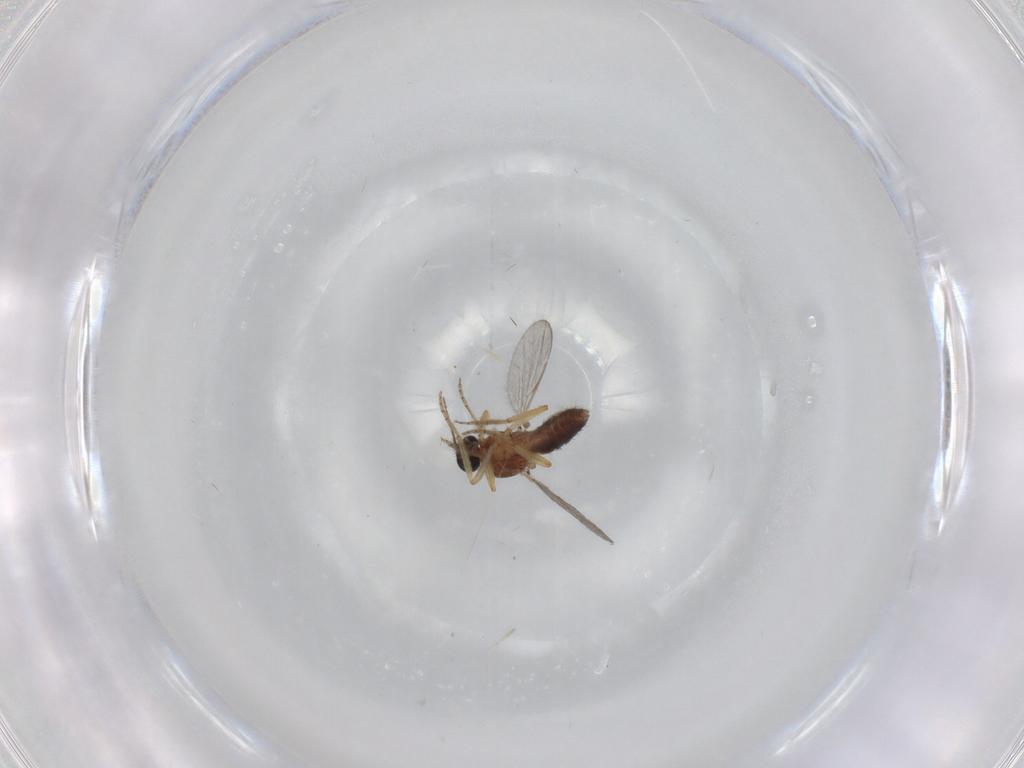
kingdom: Animalia
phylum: Arthropoda
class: Insecta
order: Diptera
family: Ceratopogonidae
